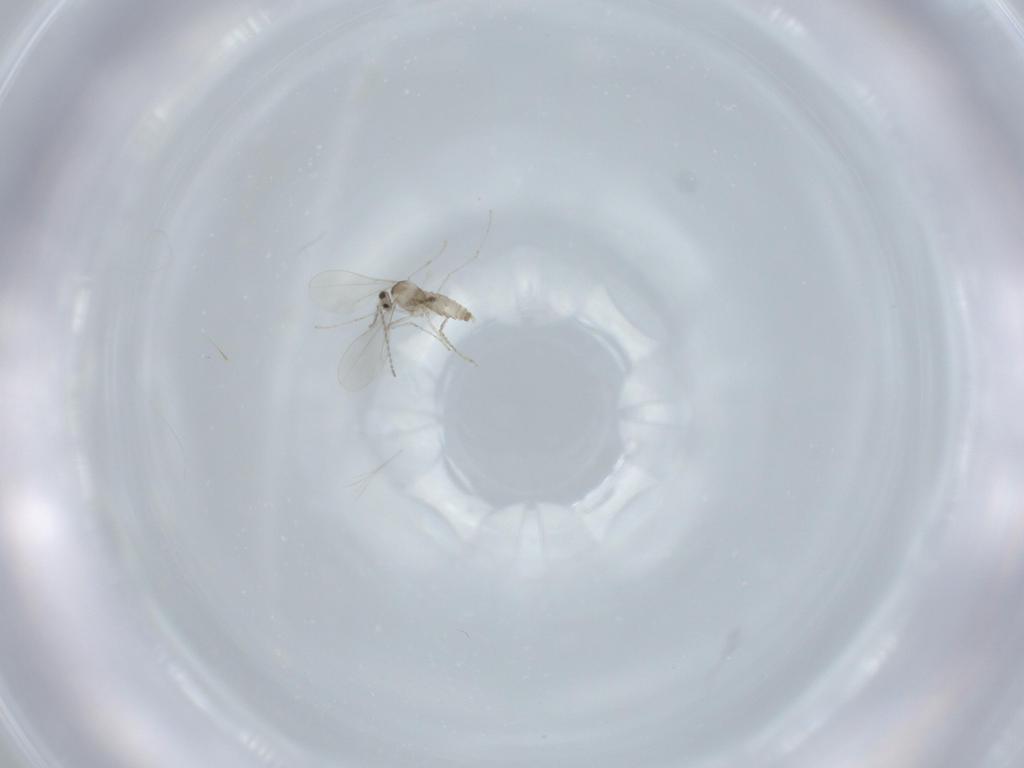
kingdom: Animalia
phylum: Arthropoda
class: Insecta
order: Diptera
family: Cecidomyiidae
